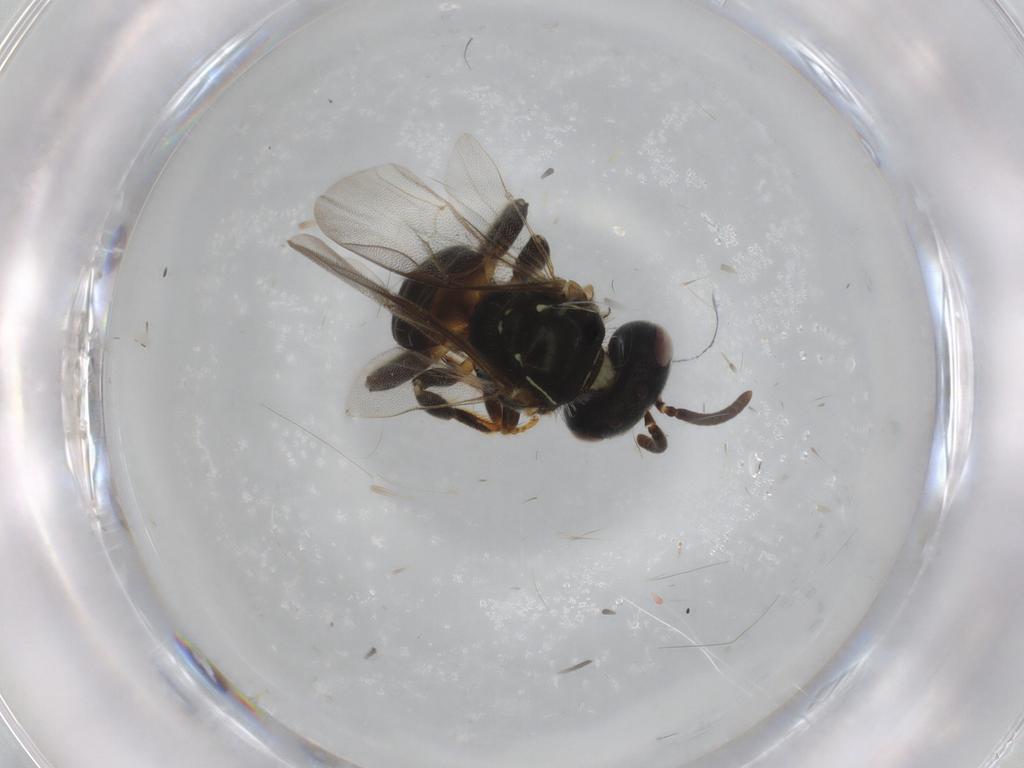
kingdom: Animalia
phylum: Arthropoda
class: Insecta
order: Hymenoptera
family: Apidae
